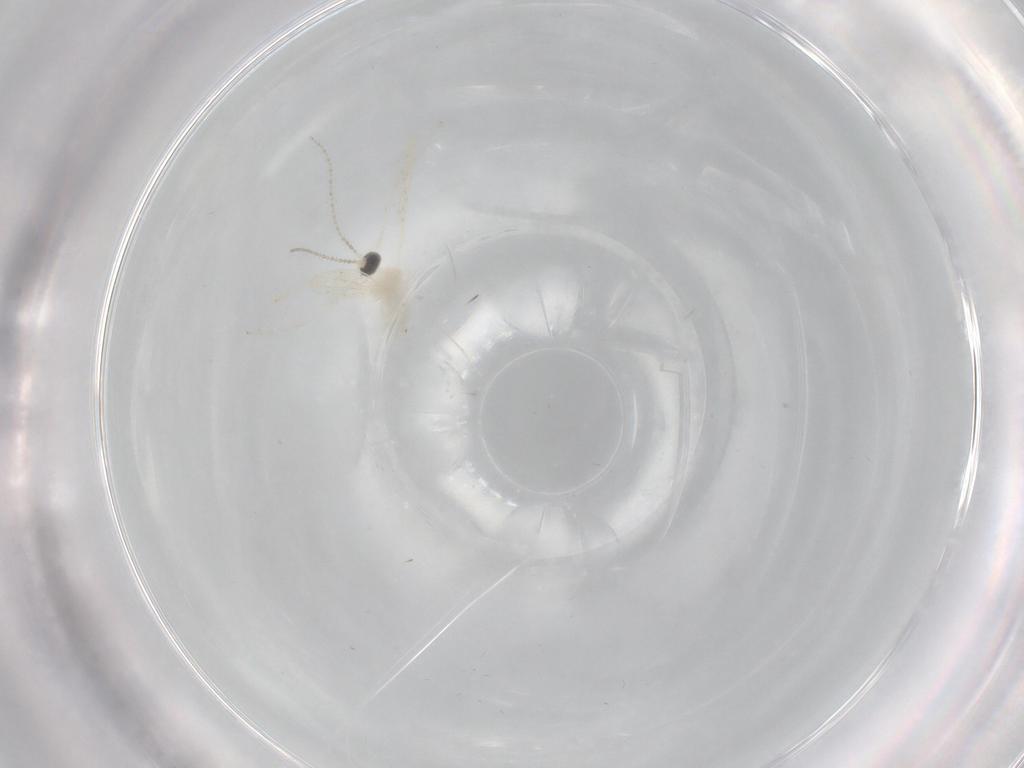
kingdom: Animalia
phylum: Arthropoda
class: Insecta
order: Diptera
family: Cecidomyiidae
